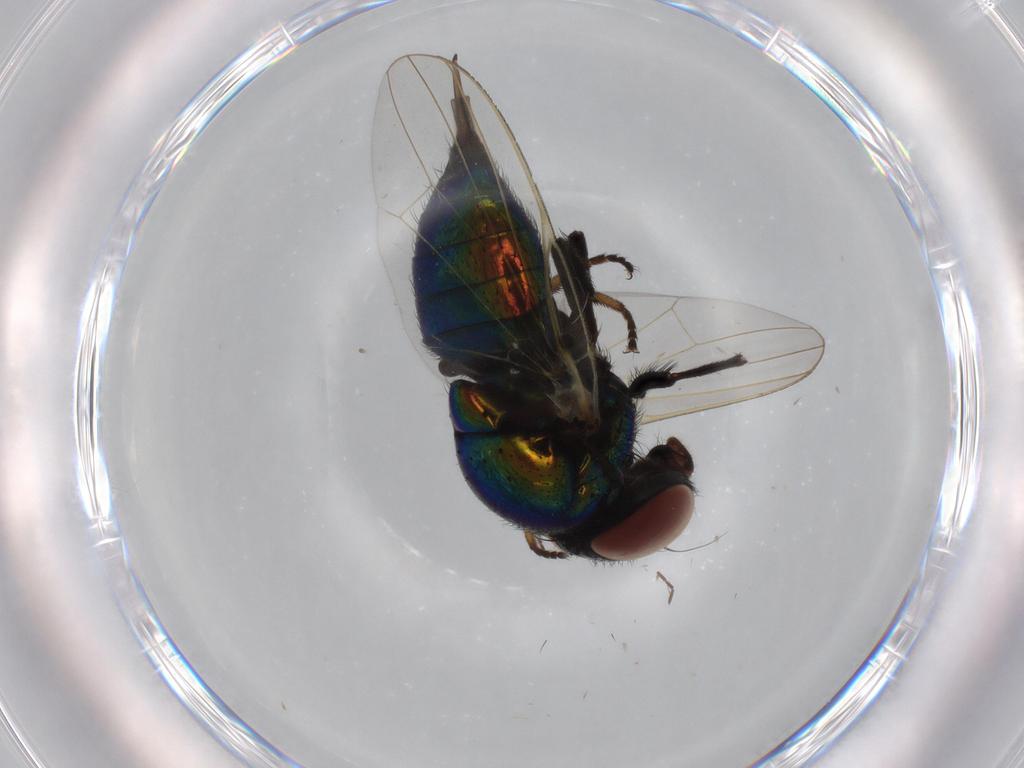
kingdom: Animalia
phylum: Arthropoda
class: Insecta
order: Diptera
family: Sciaridae
